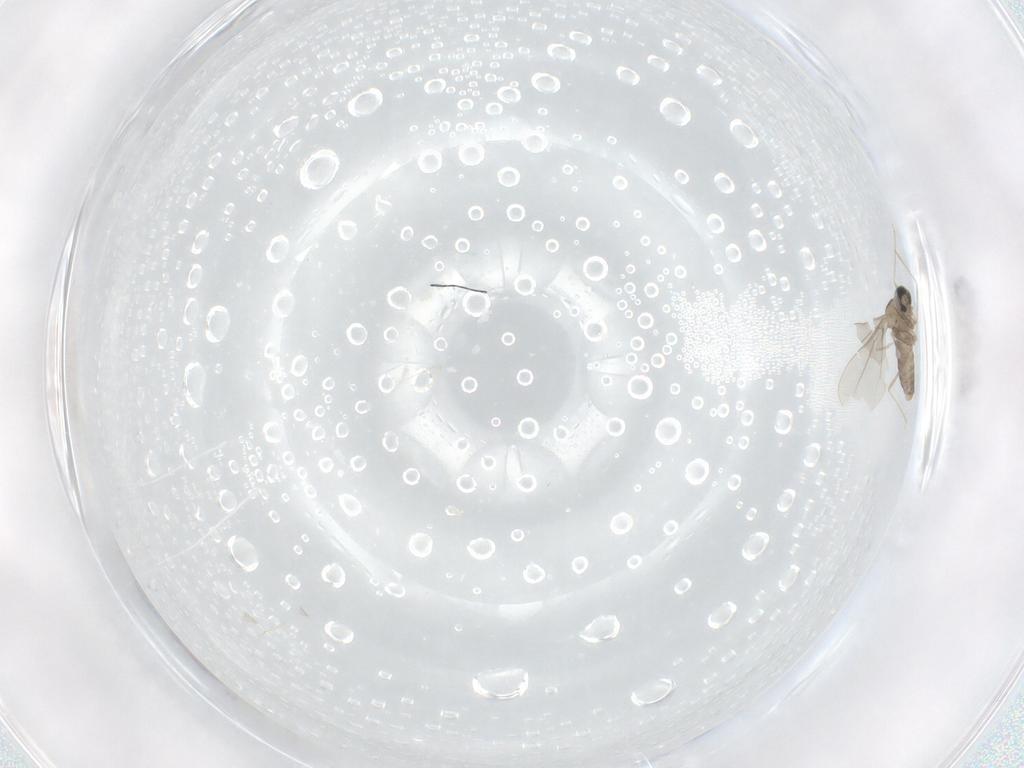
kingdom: Animalia
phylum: Arthropoda
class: Insecta
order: Diptera
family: Cecidomyiidae
